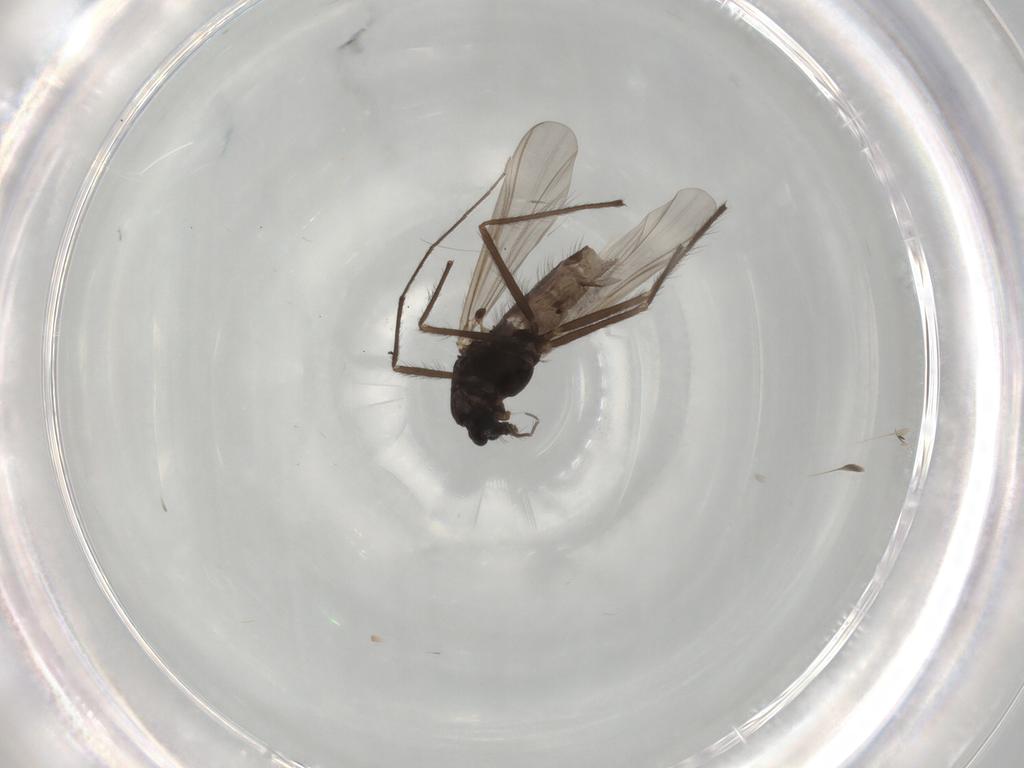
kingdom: Animalia
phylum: Arthropoda
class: Insecta
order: Diptera
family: Chironomidae
